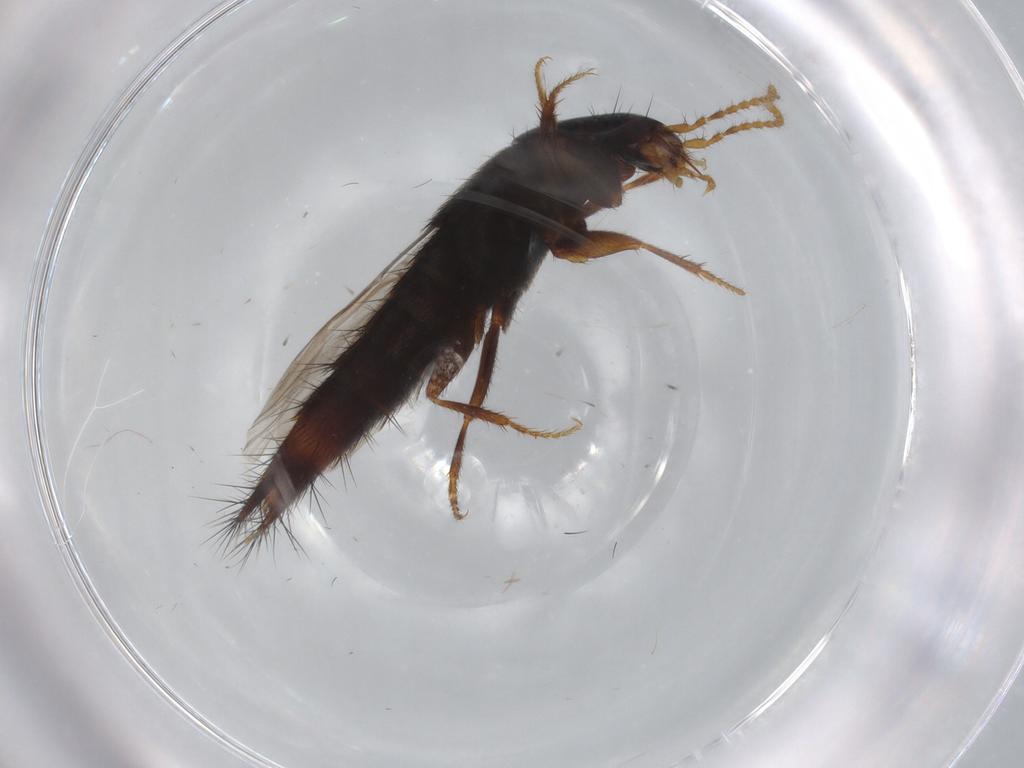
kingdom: Animalia
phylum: Arthropoda
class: Insecta
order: Coleoptera
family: Staphylinidae
